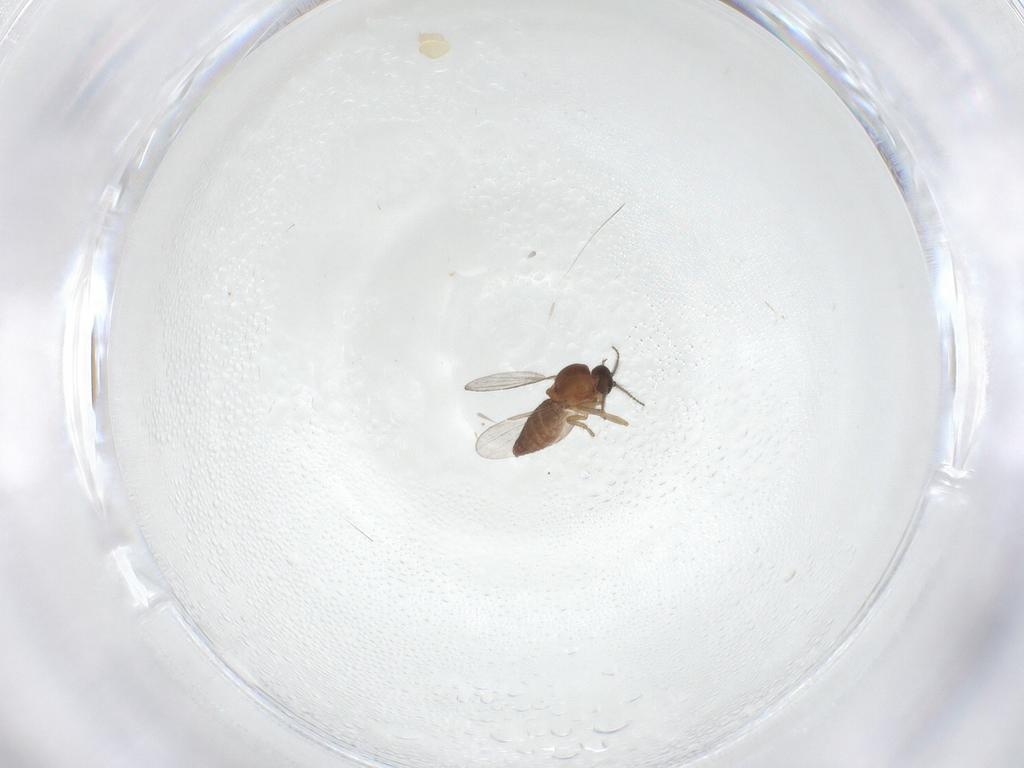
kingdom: Animalia
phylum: Arthropoda
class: Insecta
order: Diptera
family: Ceratopogonidae
